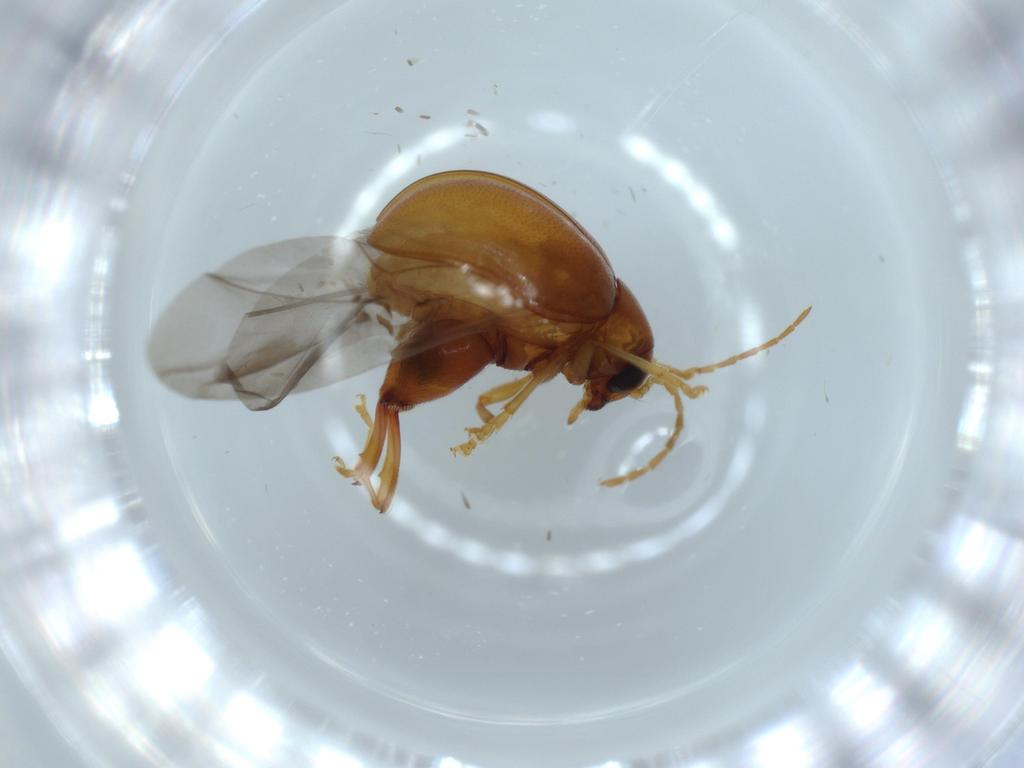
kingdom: Animalia
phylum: Arthropoda
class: Insecta
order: Coleoptera
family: Chrysomelidae
